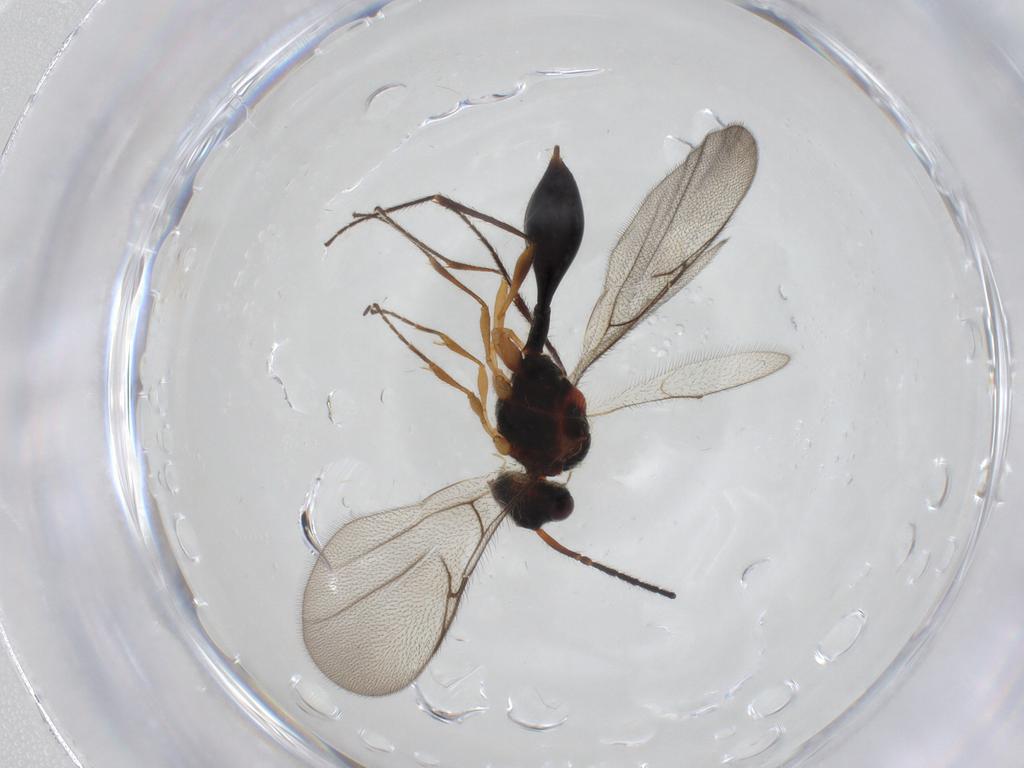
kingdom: Animalia
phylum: Arthropoda
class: Insecta
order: Hymenoptera
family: Diapriidae
